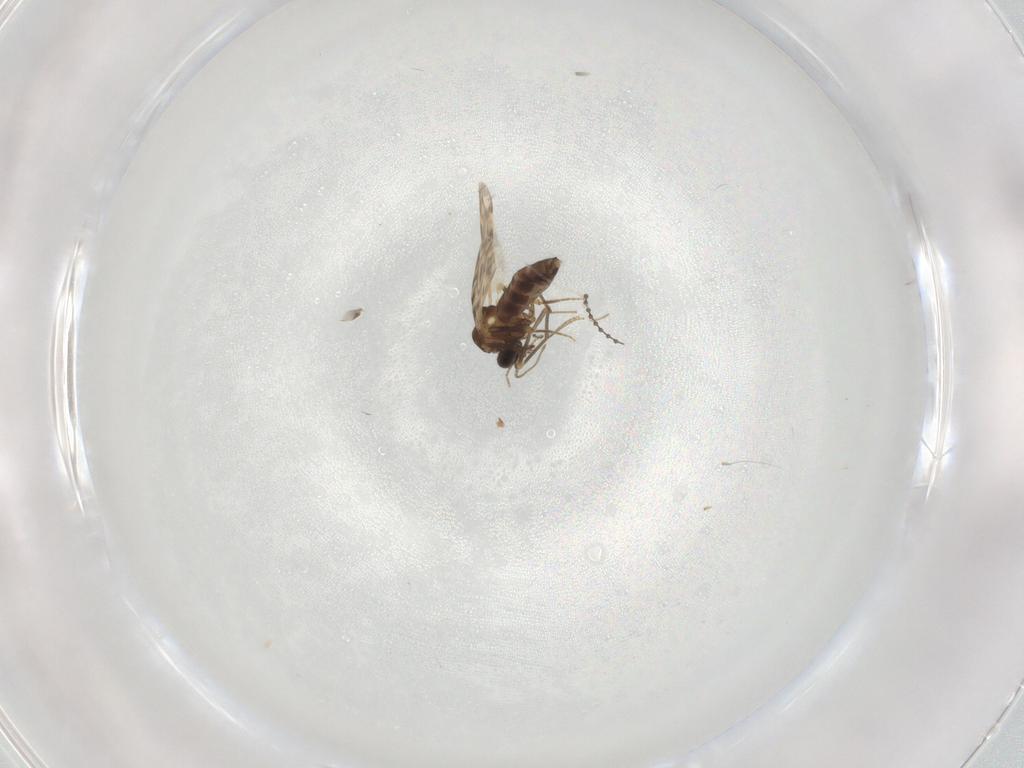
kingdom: Animalia
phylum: Arthropoda
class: Insecta
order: Diptera
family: Ceratopogonidae
